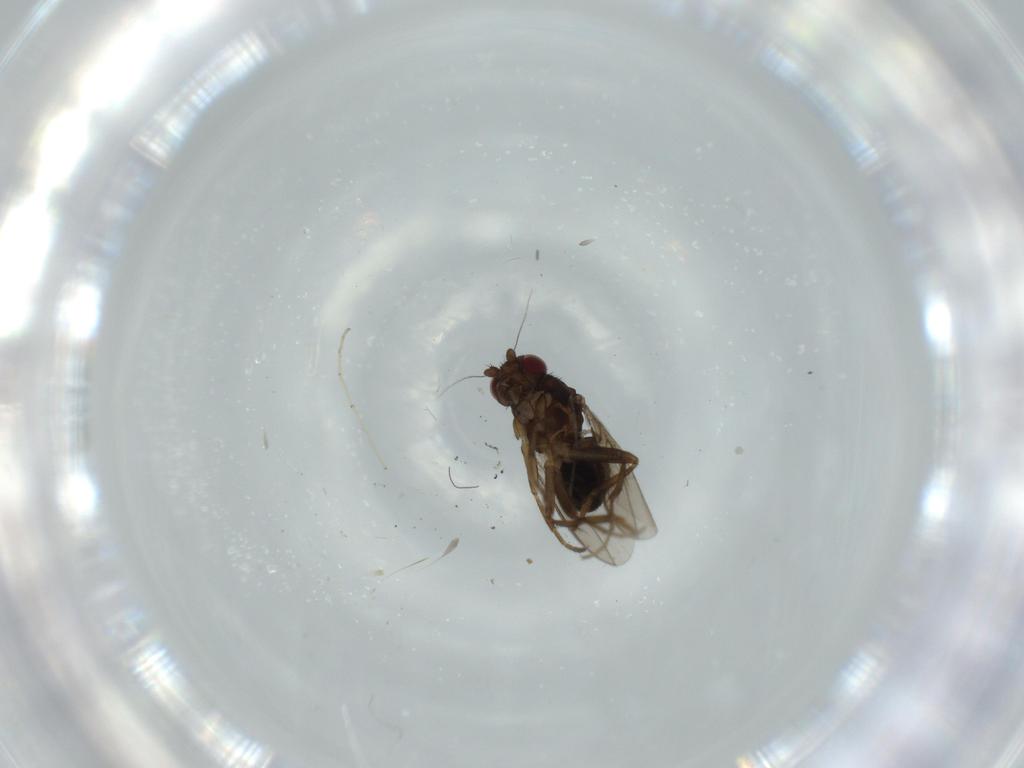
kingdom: Animalia
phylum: Arthropoda
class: Insecta
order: Diptera
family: Sphaeroceridae
